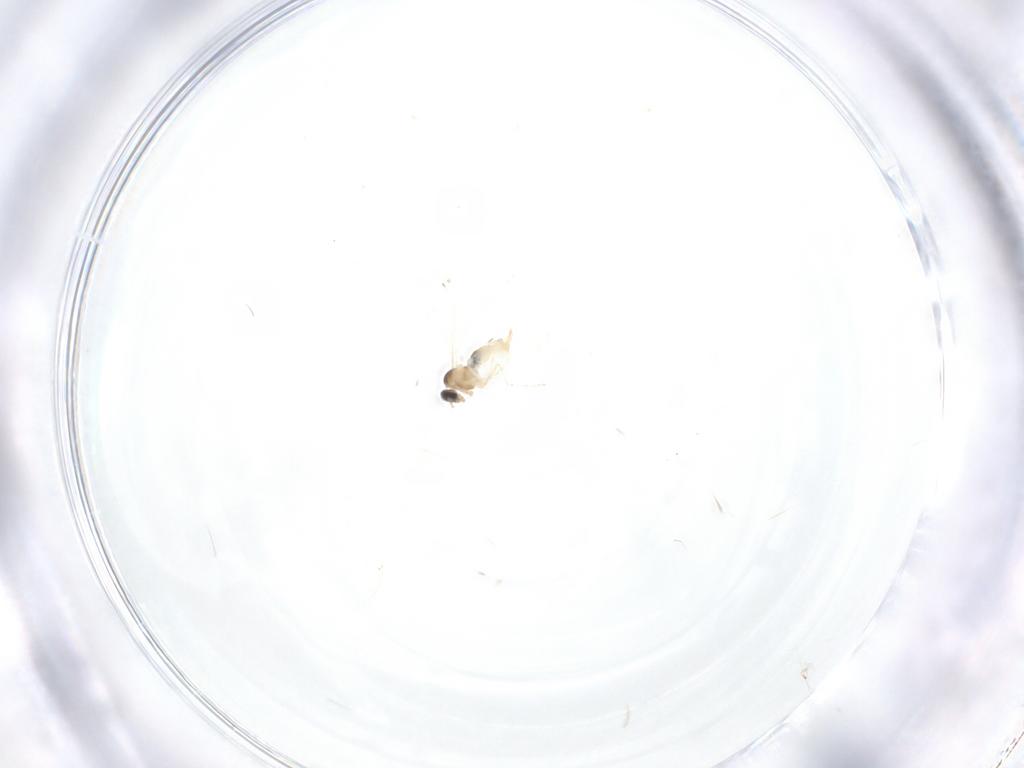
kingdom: Animalia
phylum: Arthropoda
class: Insecta
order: Diptera
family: Cecidomyiidae
